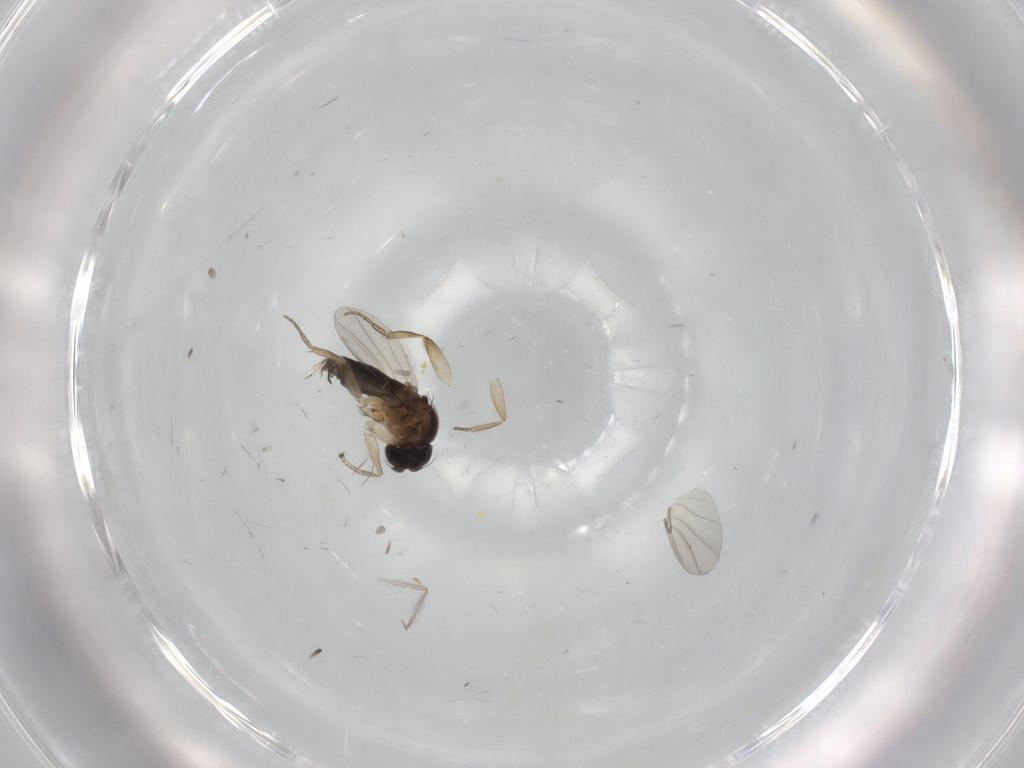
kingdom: Animalia
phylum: Arthropoda
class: Insecta
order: Diptera
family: Phoridae
